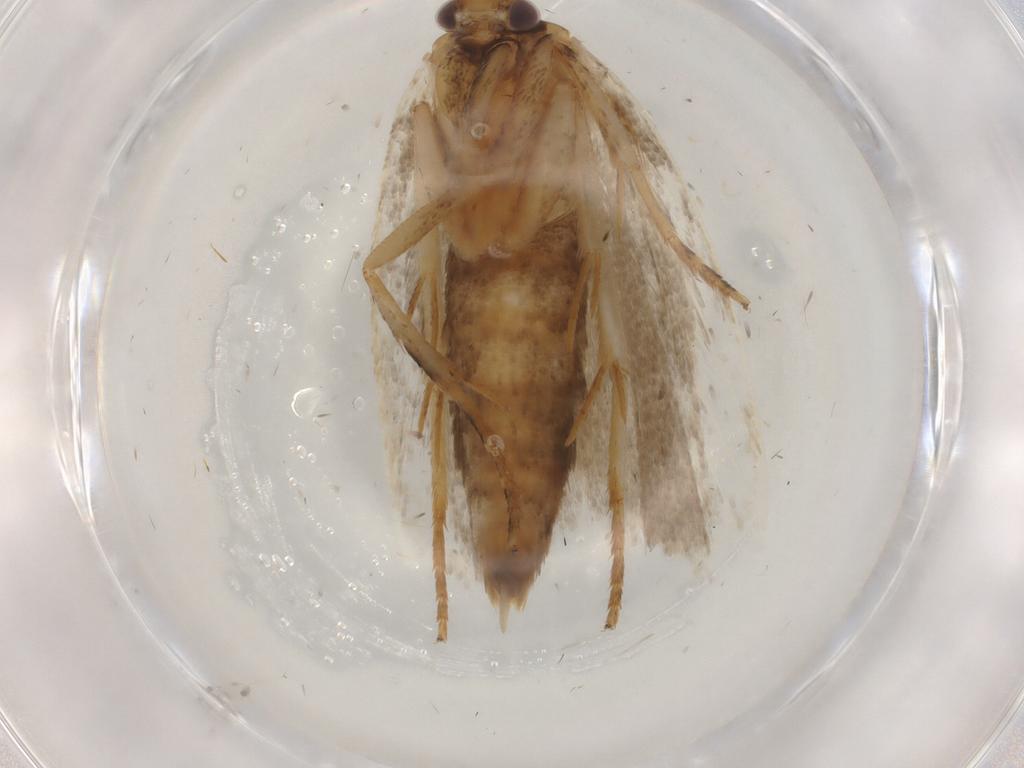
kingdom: Animalia
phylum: Arthropoda
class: Insecta
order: Lepidoptera
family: Gelechiidae
